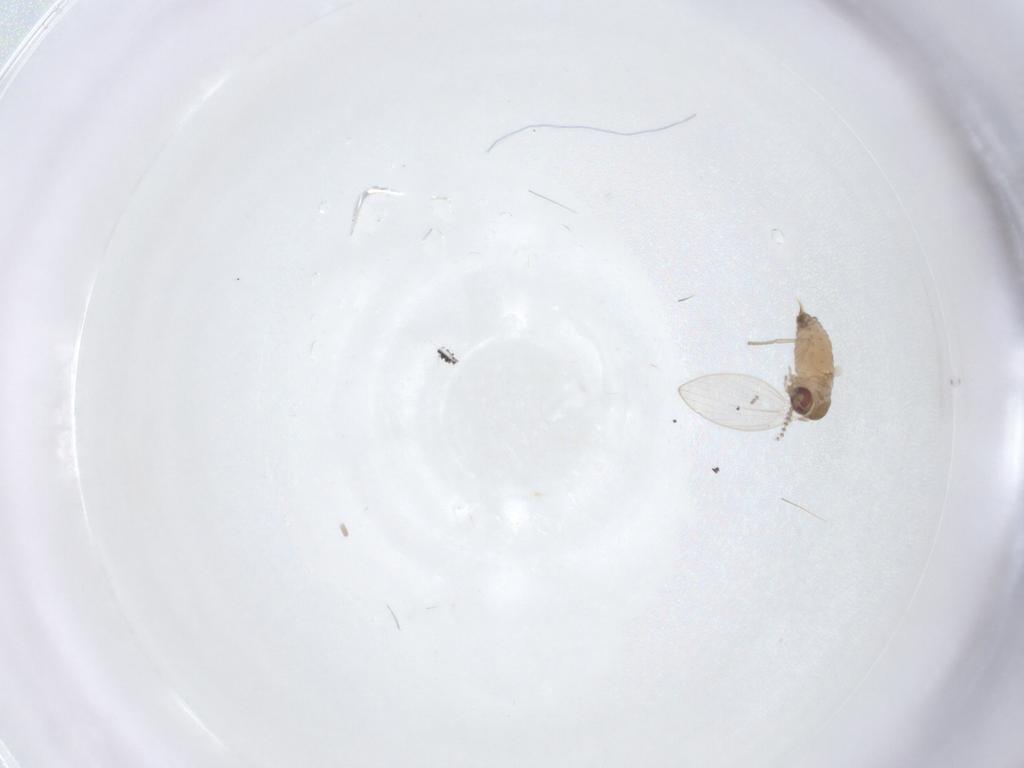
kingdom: Animalia
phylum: Arthropoda
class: Insecta
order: Diptera
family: Psychodidae
